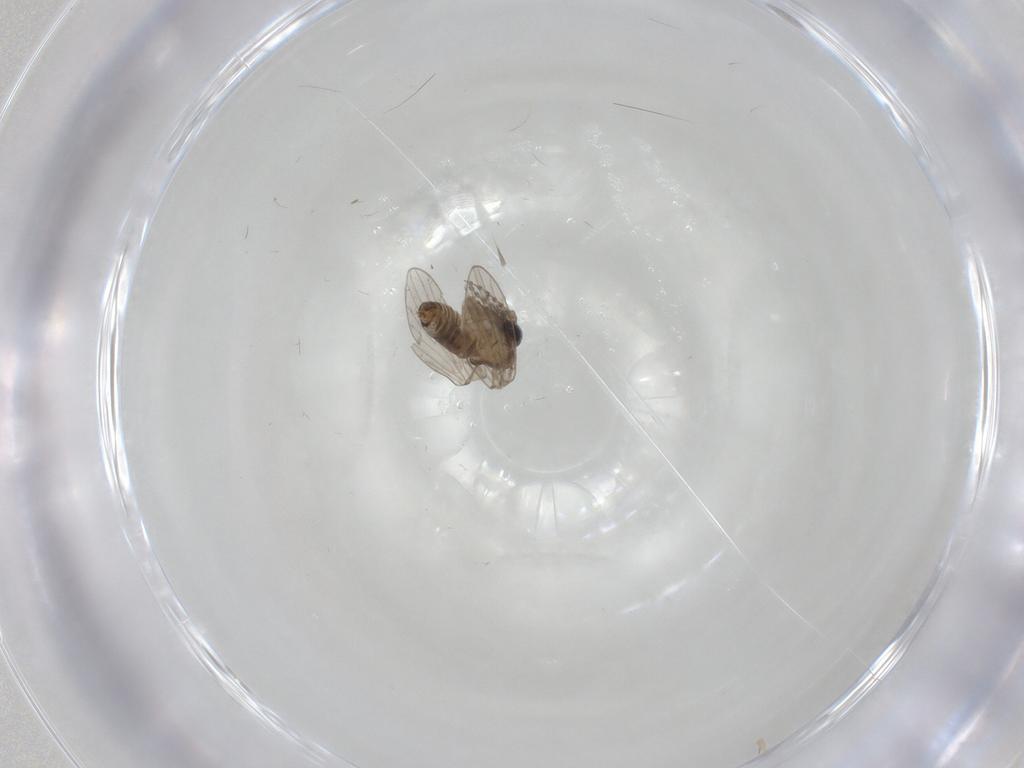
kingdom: Animalia
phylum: Arthropoda
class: Insecta
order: Diptera
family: Psychodidae
